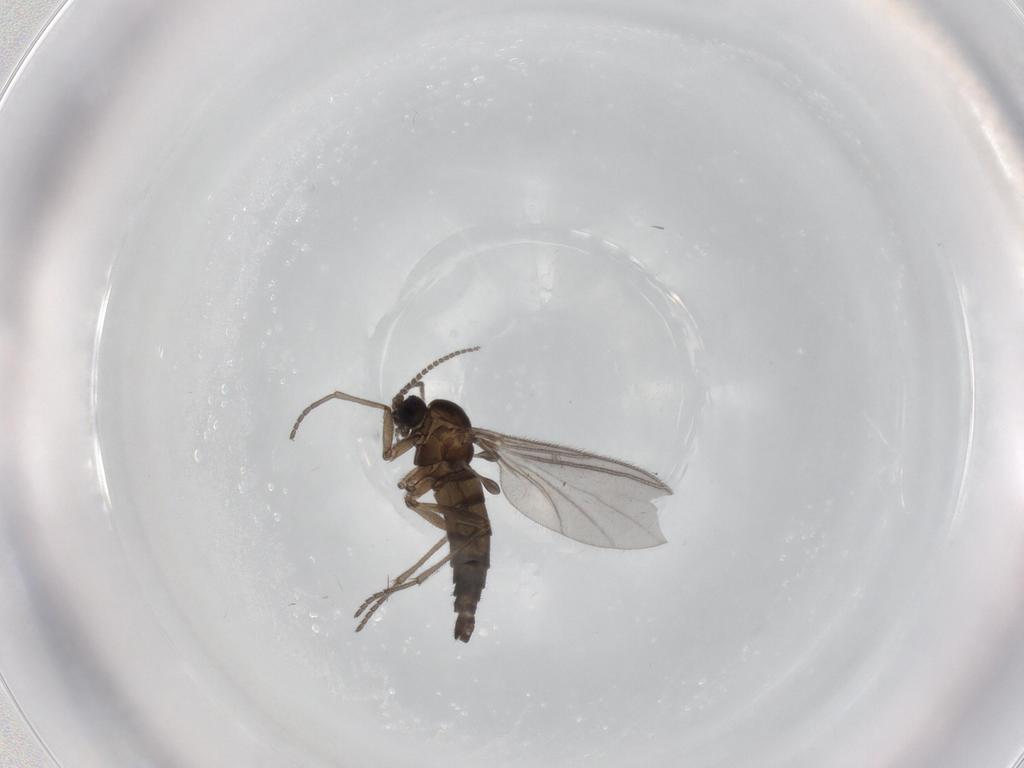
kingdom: Animalia
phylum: Arthropoda
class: Insecta
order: Diptera
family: Sciaridae
